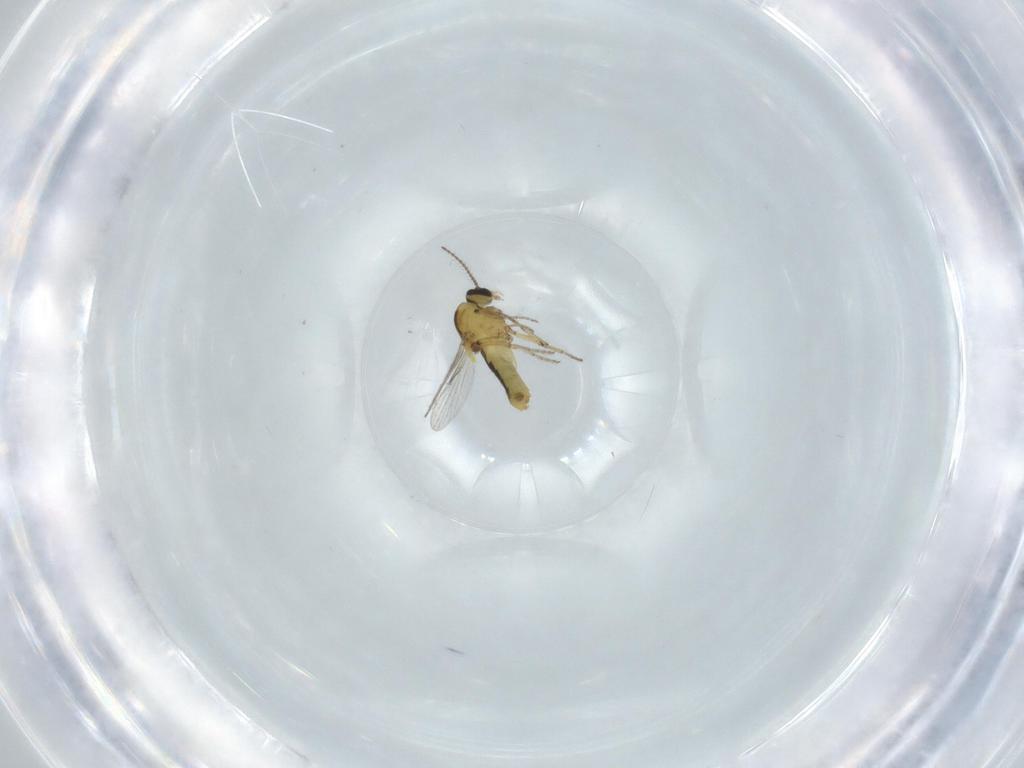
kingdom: Animalia
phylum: Arthropoda
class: Insecta
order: Diptera
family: Ceratopogonidae
